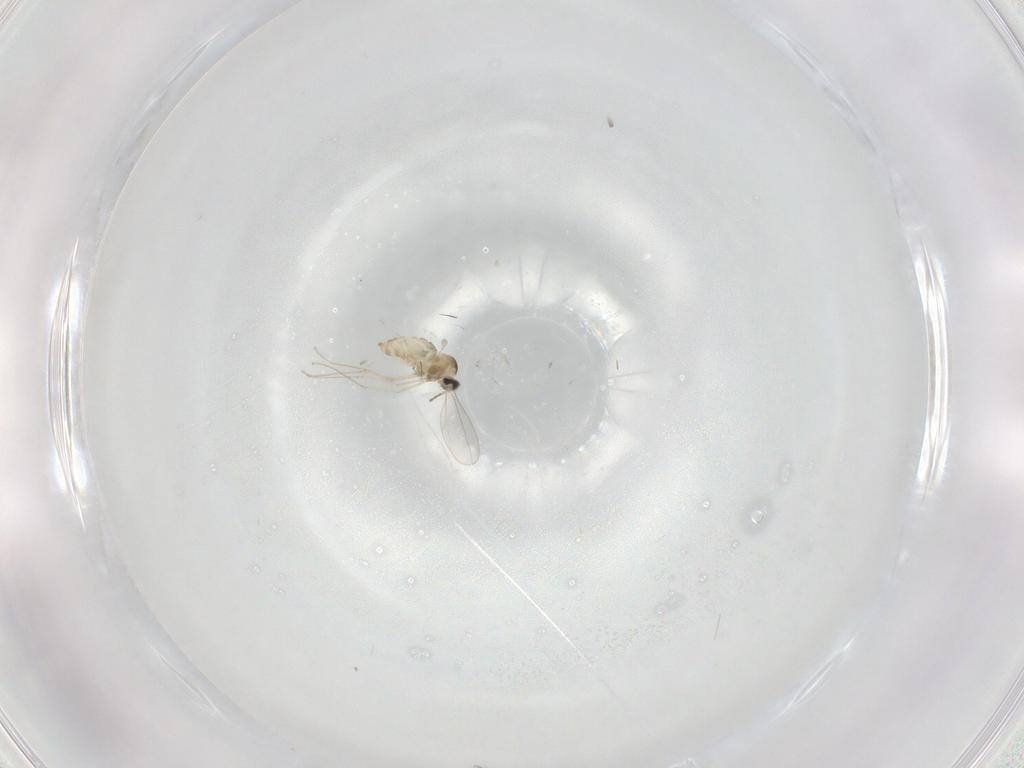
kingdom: Animalia
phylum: Arthropoda
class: Insecta
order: Diptera
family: Cecidomyiidae
